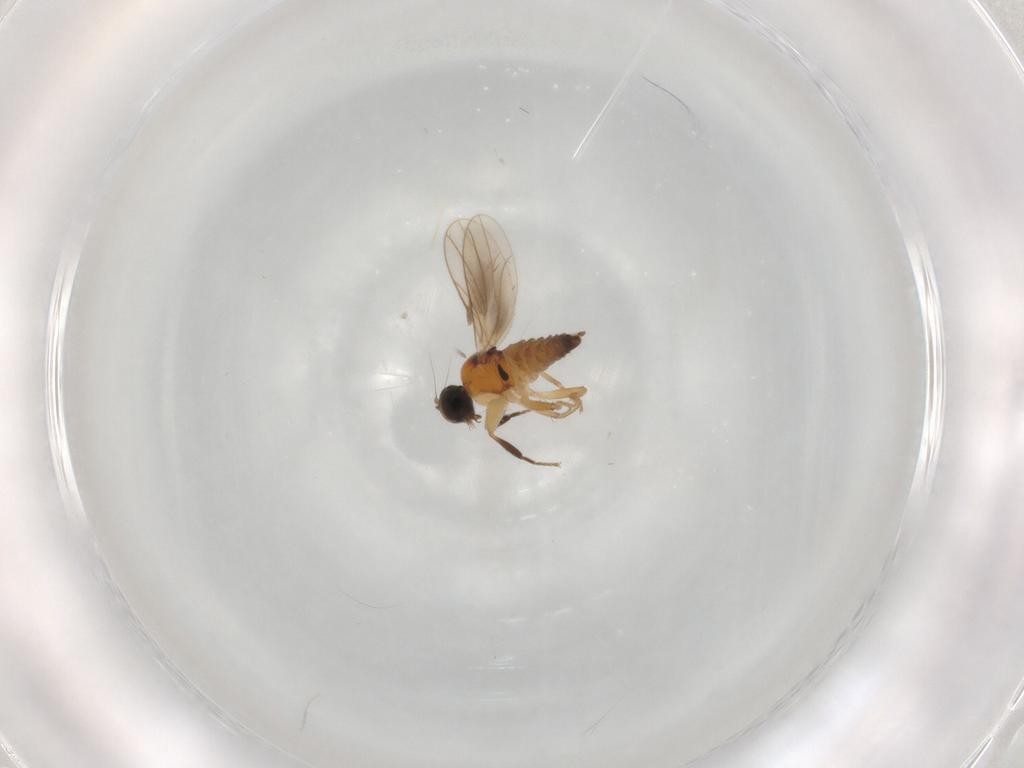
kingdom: Animalia
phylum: Arthropoda
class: Insecta
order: Diptera
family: Hybotidae
